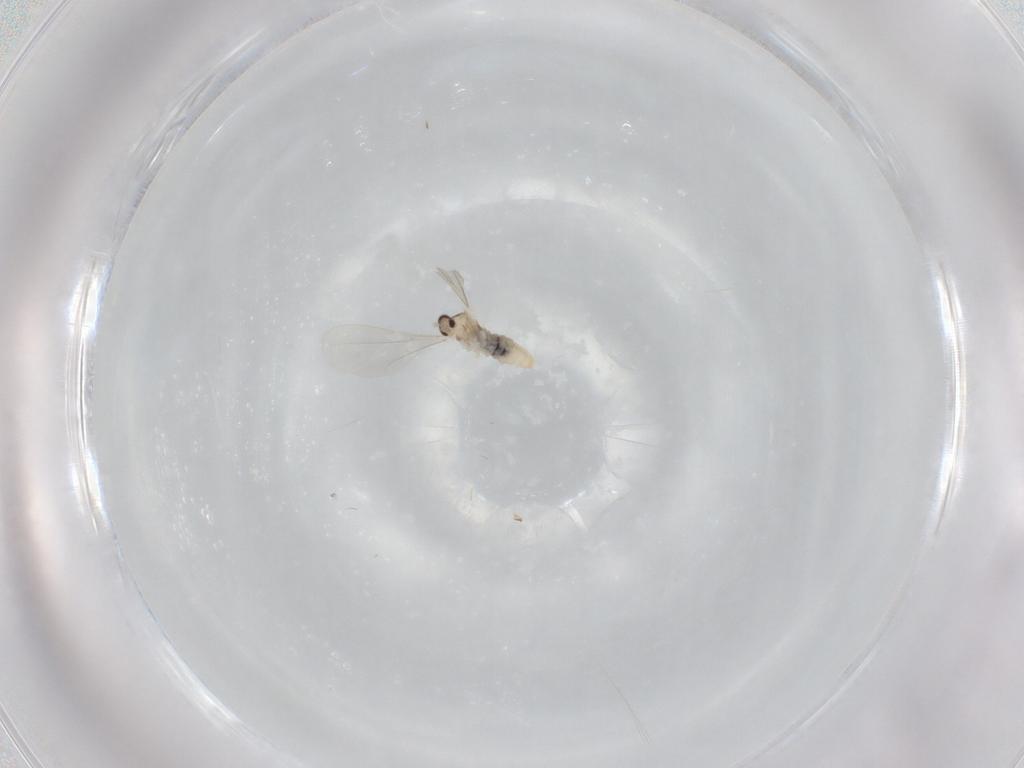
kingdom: Animalia
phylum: Arthropoda
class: Insecta
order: Diptera
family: Cecidomyiidae
